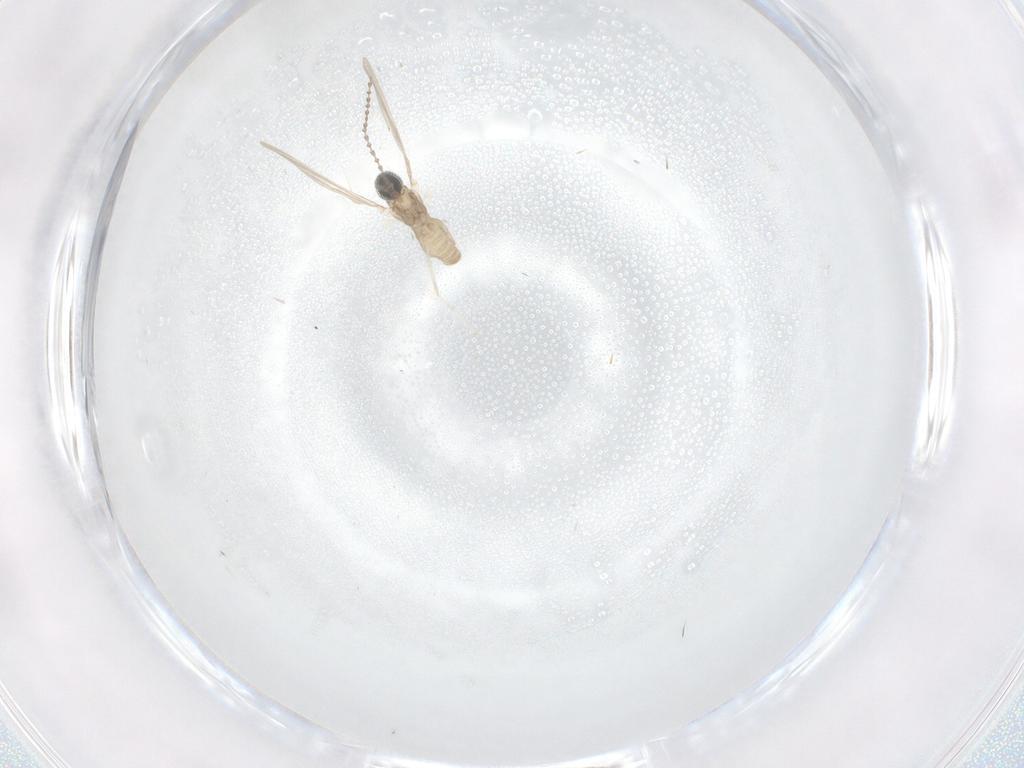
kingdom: Animalia
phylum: Arthropoda
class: Insecta
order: Diptera
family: Cecidomyiidae
